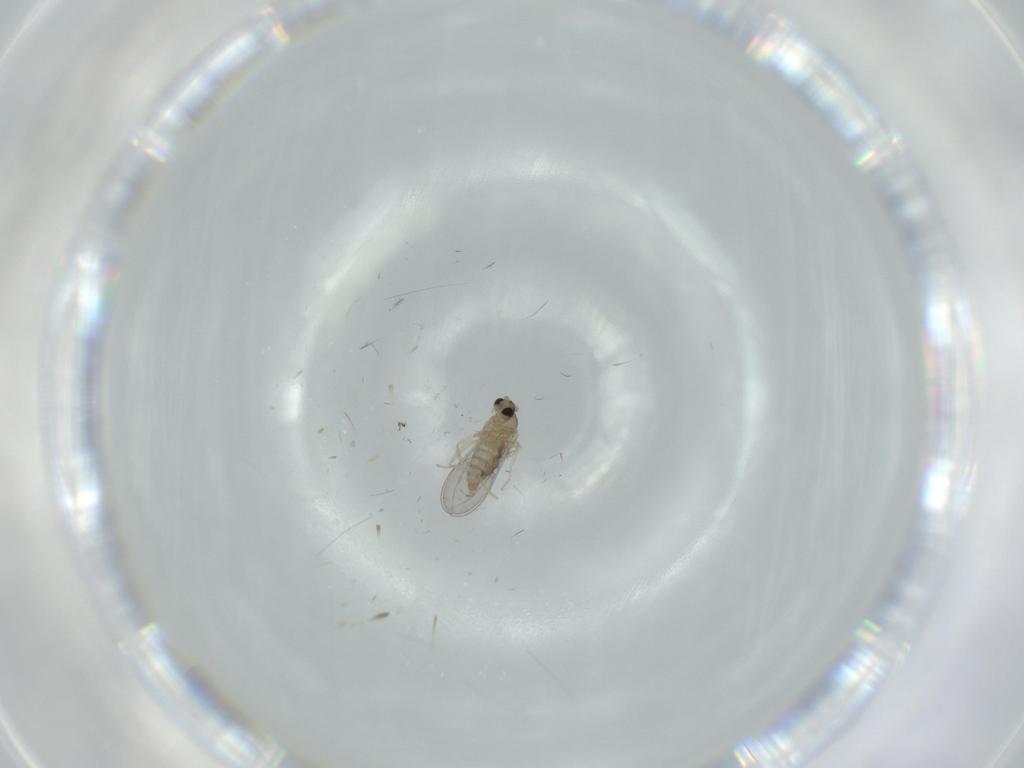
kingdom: Animalia
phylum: Arthropoda
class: Insecta
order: Diptera
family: Cecidomyiidae
